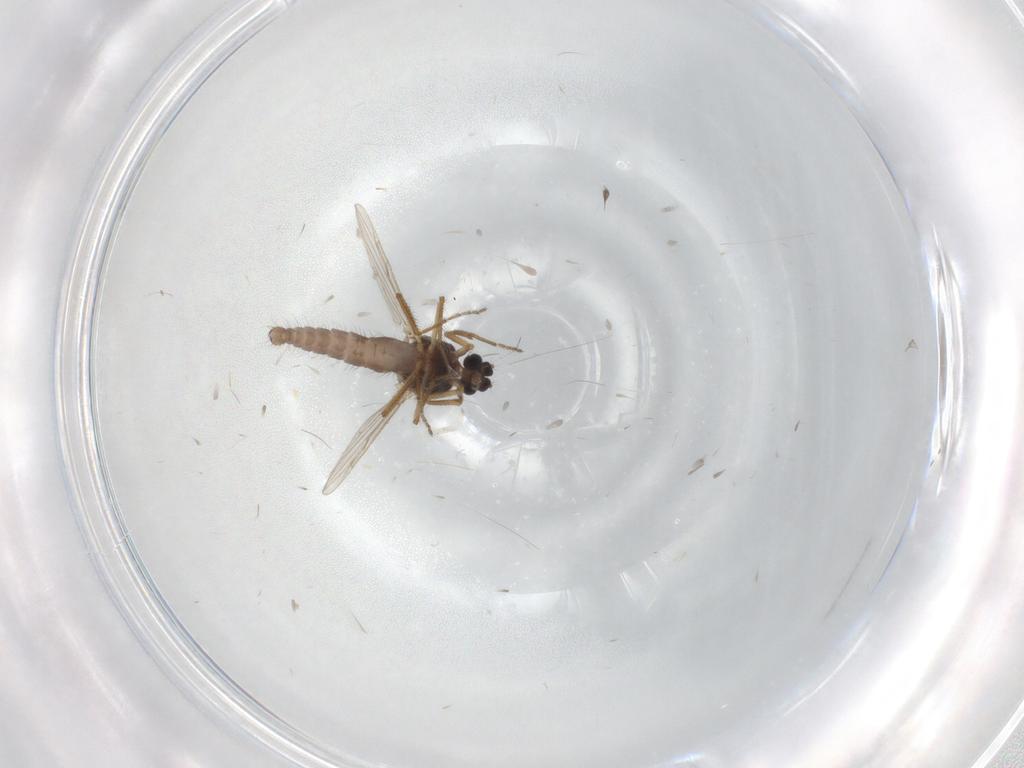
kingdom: Animalia
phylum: Arthropoda
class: Insecta
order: Diptera
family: Ceratopogonidae
